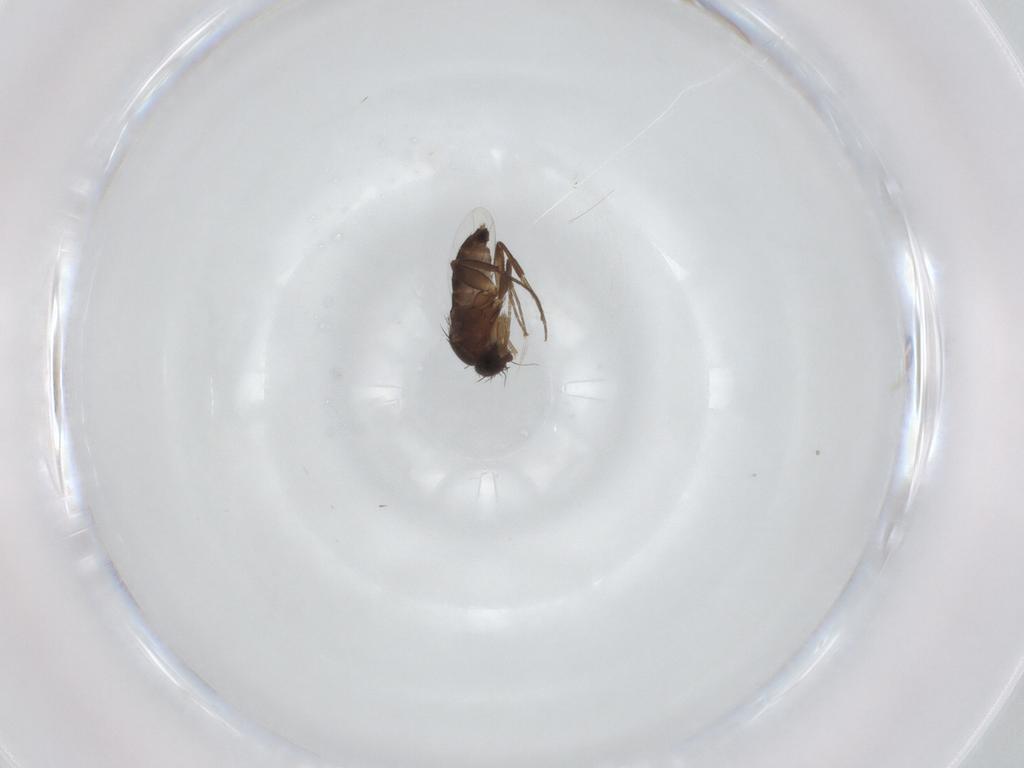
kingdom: Animalia
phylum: Arthropoda
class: Insecta
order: Diptera
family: Phoridae
